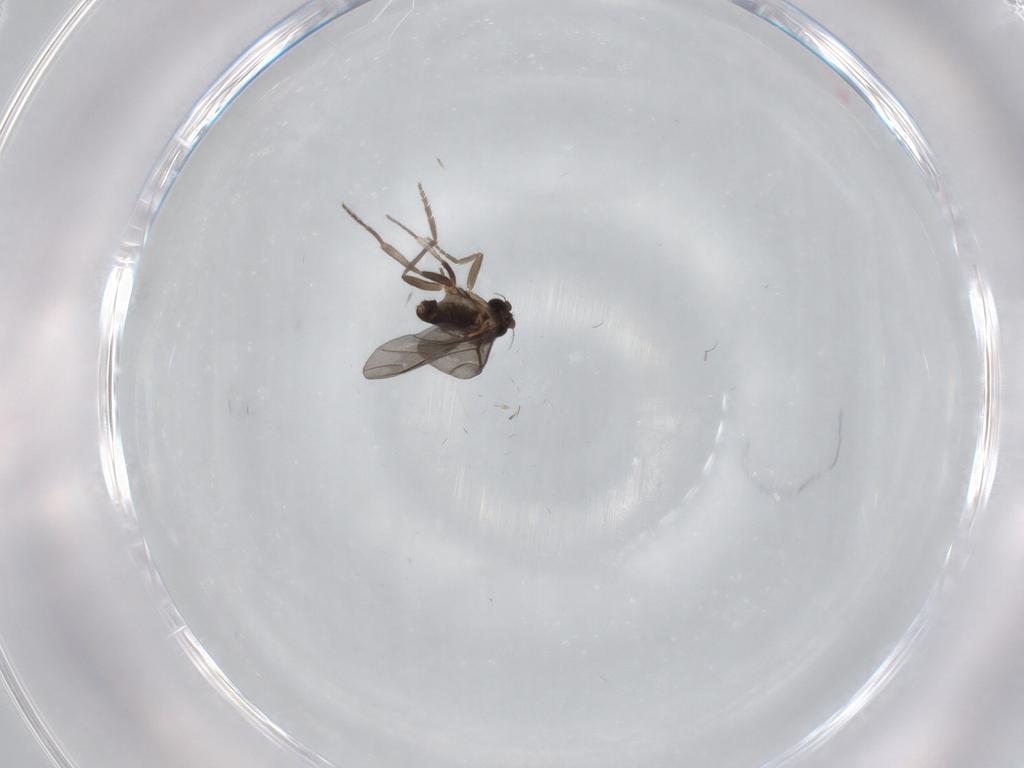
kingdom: Animalia
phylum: Arthropoda
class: Insecta
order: Diptera
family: Phoridae
